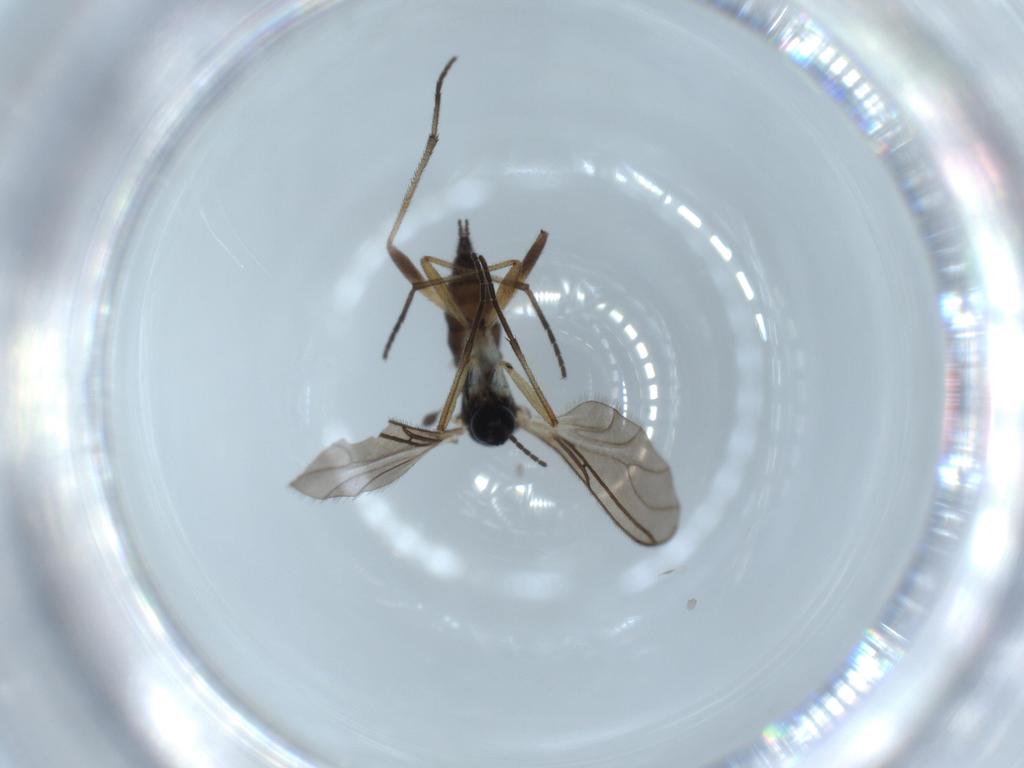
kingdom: Animalia
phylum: Arthropoda
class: Insecta
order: Diptera
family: Sciaridae
